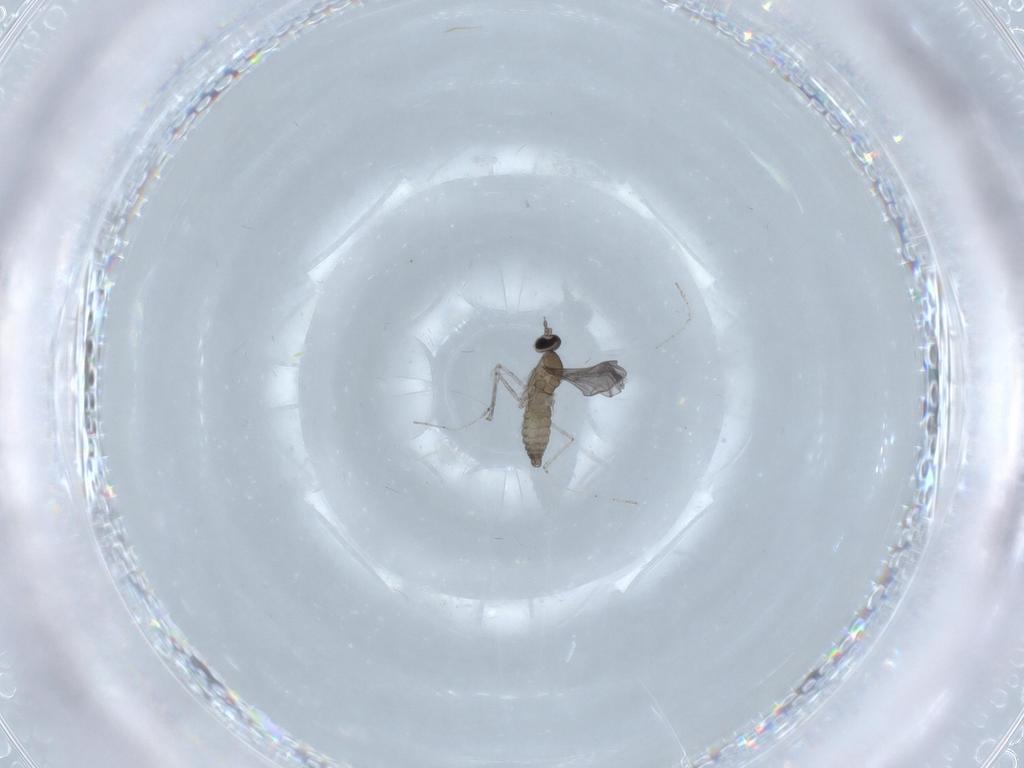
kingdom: Animalia
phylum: Arthropoda
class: Insecta
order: Diptera
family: Cecidomyiidae
